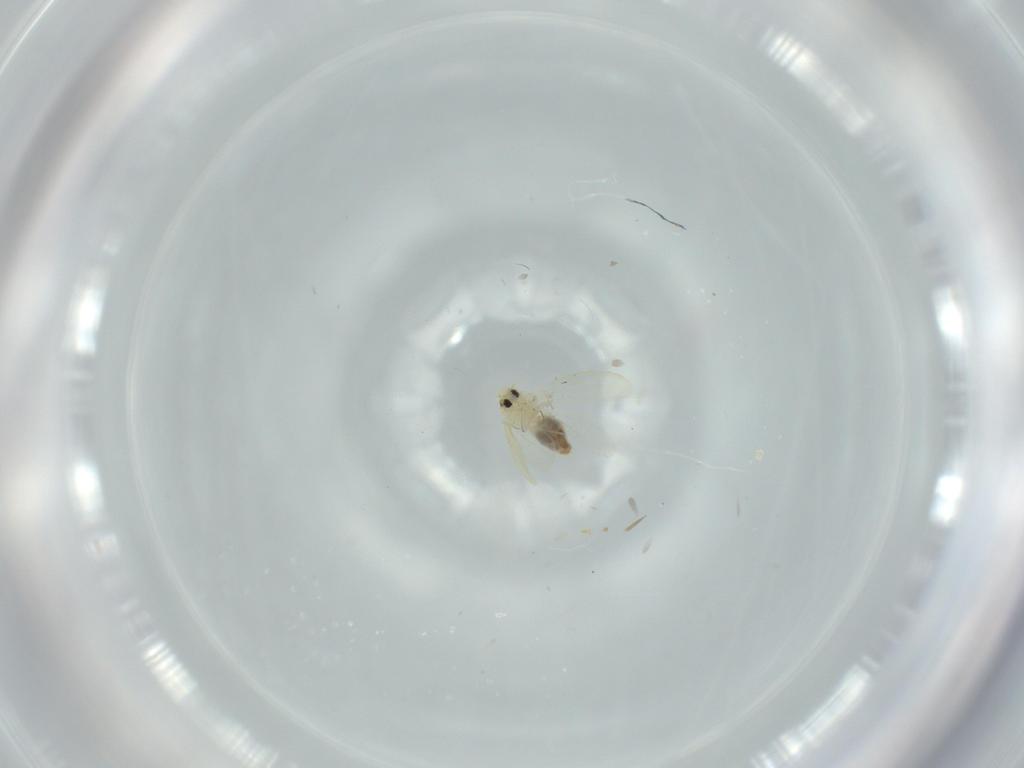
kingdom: Animalia
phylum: Arthropoda
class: Insecta
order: Hemiptera
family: Aleyrodidae
